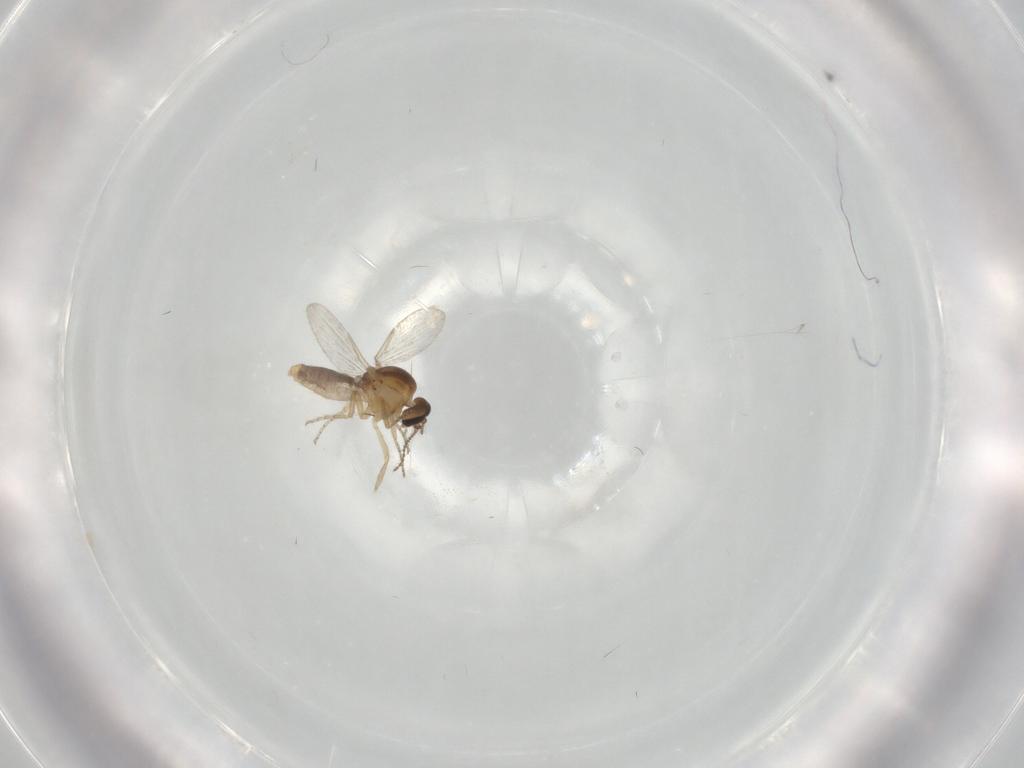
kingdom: Animalia
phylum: Arthropoda
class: Insecta
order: Diptera
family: Ceratopogonidae
